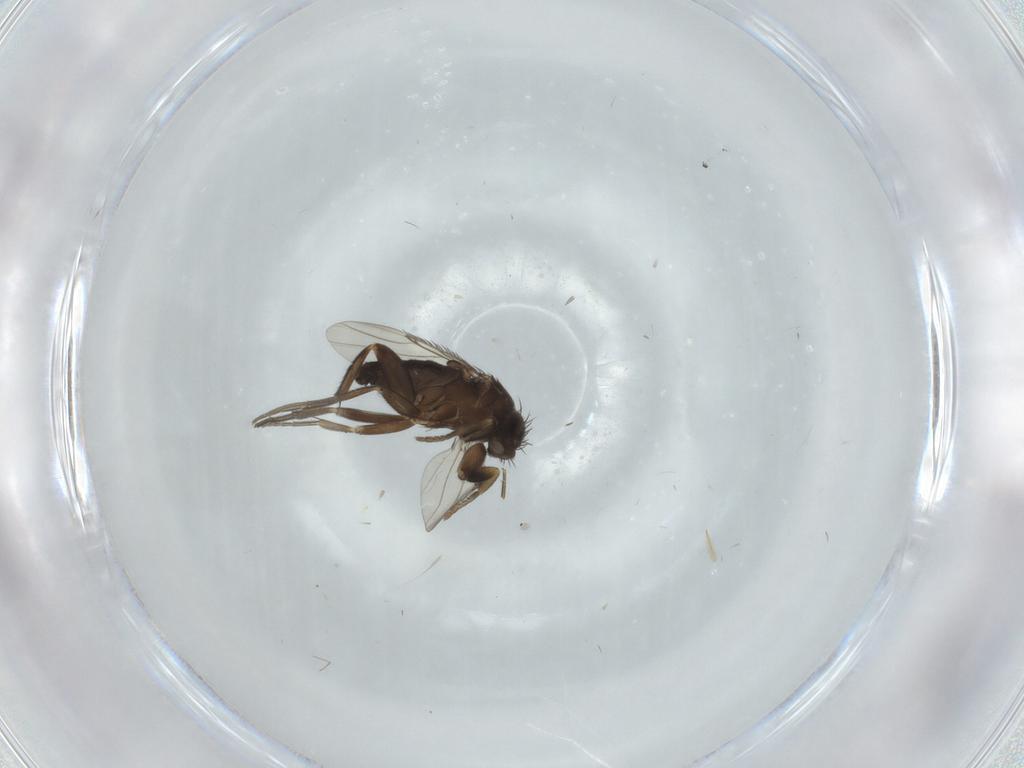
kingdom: Animalia
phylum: Arthropoda
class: Insecta
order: Diptera
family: Phoridae
